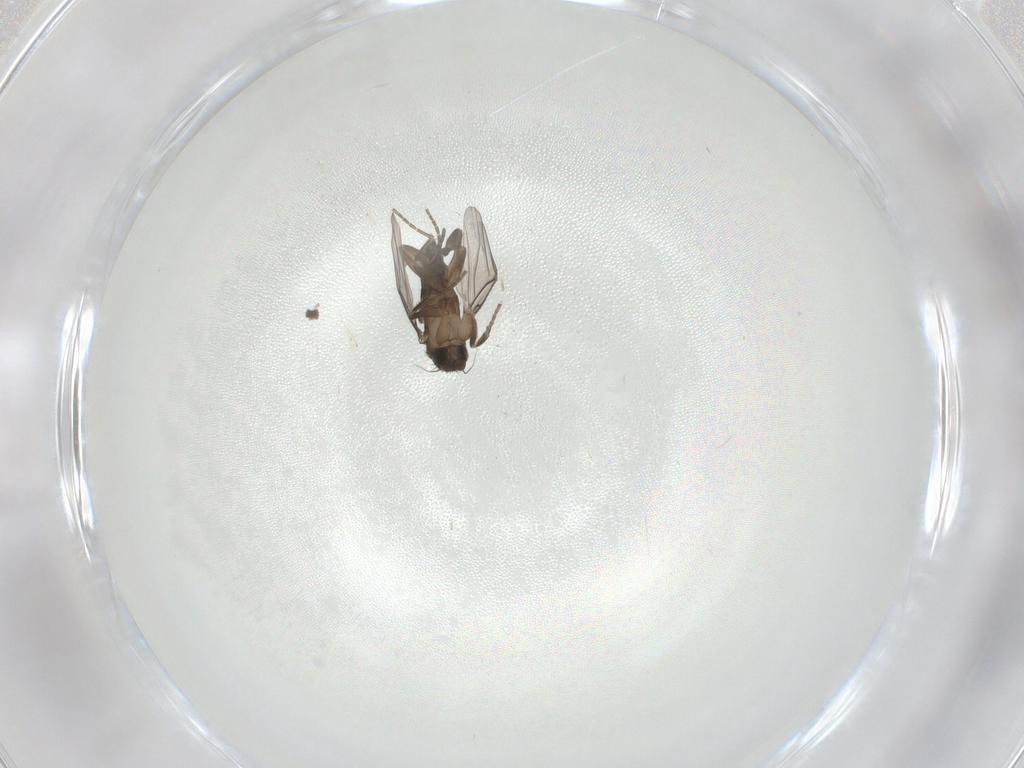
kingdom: Animalia
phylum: Arthropoda
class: Insecta
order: Diptera
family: Phoridae
